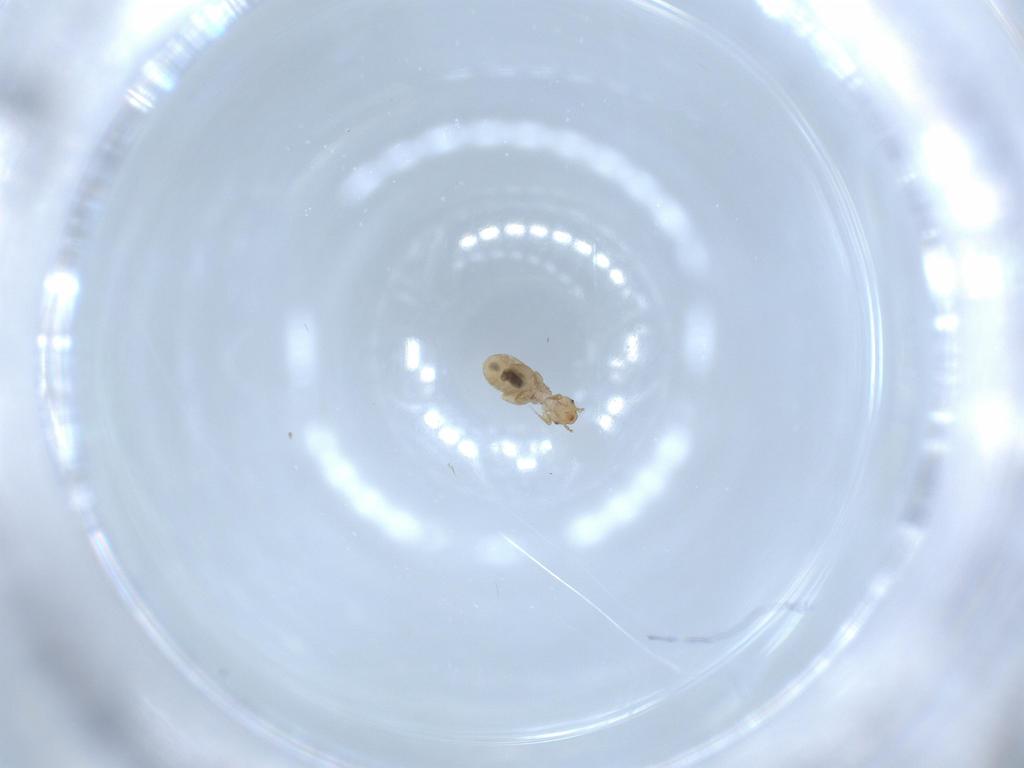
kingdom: Animalia
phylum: Arthropoda
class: Insecta
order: Psocodea
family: Liposcelididae
